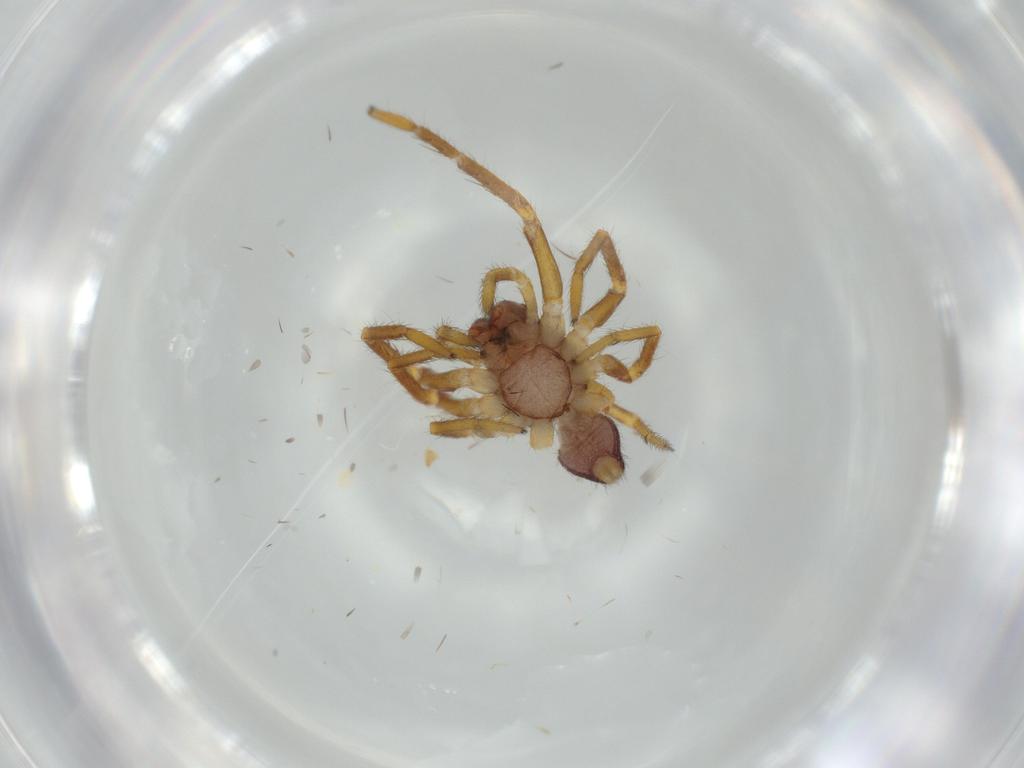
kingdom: Animalia
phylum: Arthropoda
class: Arachnida
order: Araneae
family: Corinnidae
